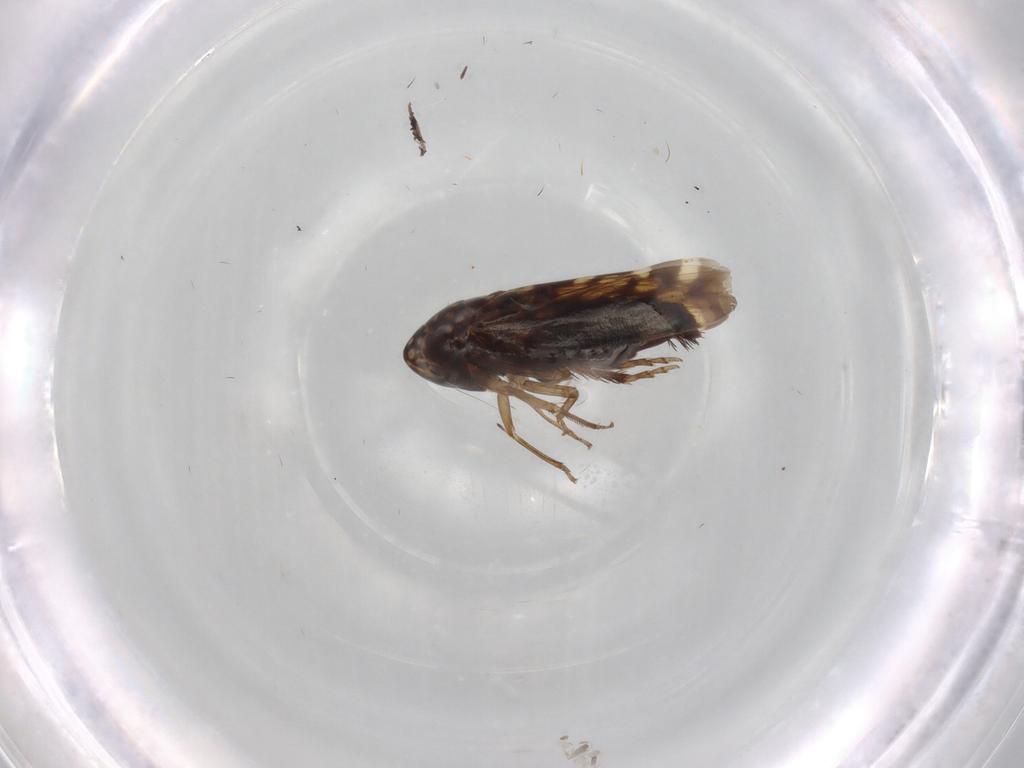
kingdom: Animalia
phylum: Arthropoda
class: Insecta
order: Hemiptera
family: Cicadellidae
